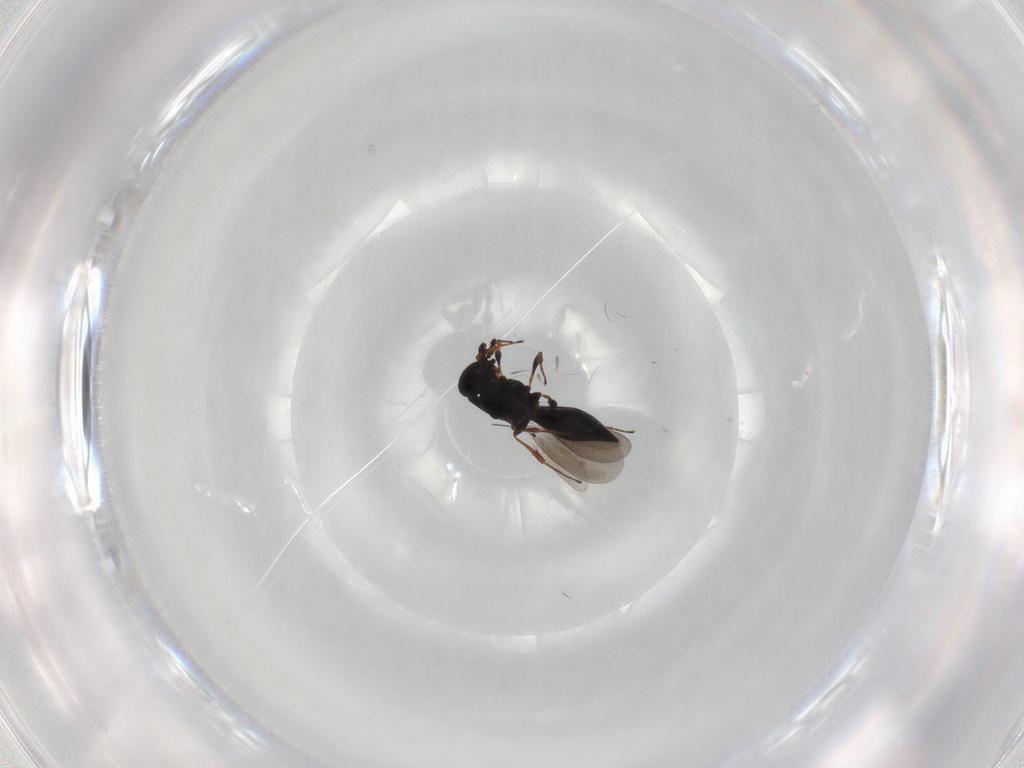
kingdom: Animalia
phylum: Arthropoda
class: Insecta
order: Hymenoptera
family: Platygastridae
